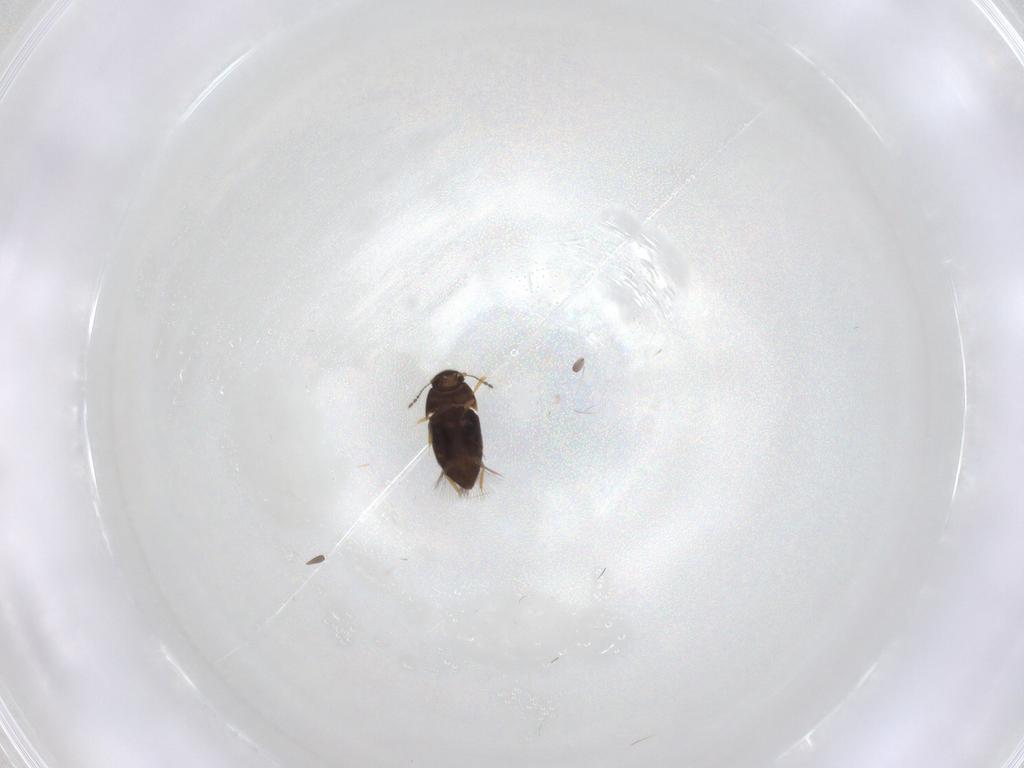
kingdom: Animalia
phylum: Arthropoda
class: Insecta
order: Coleoptera
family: Ptiliidae
